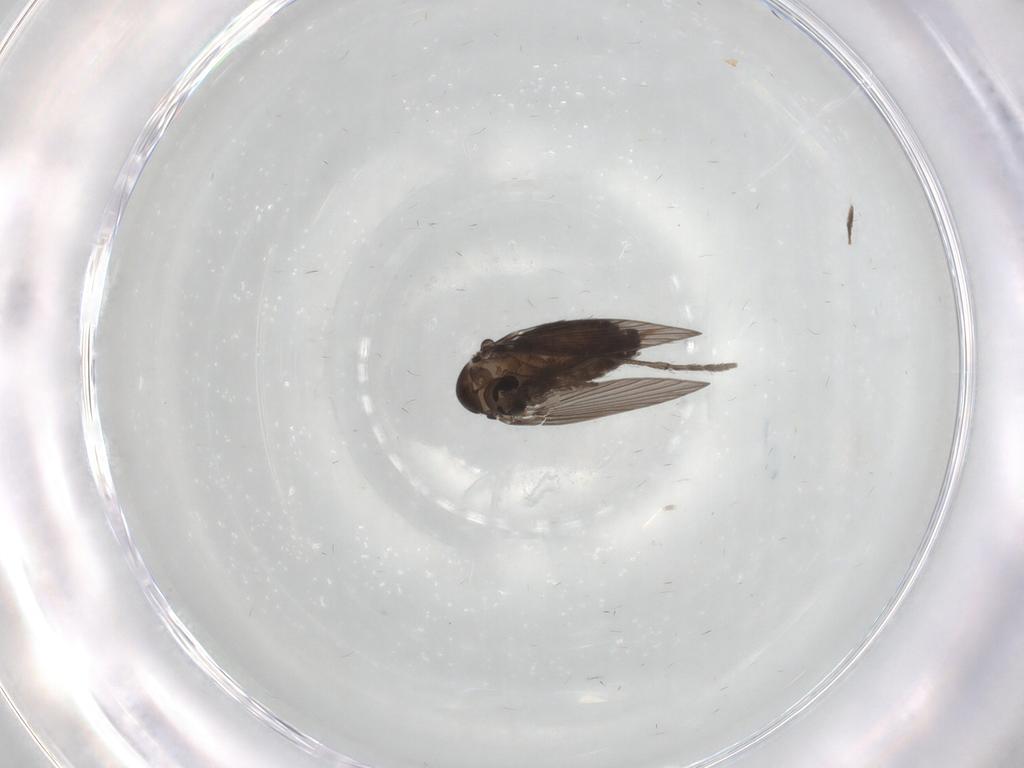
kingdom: Animalia
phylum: Arthropoda
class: Insecta
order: Diptera
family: Psychodidae
